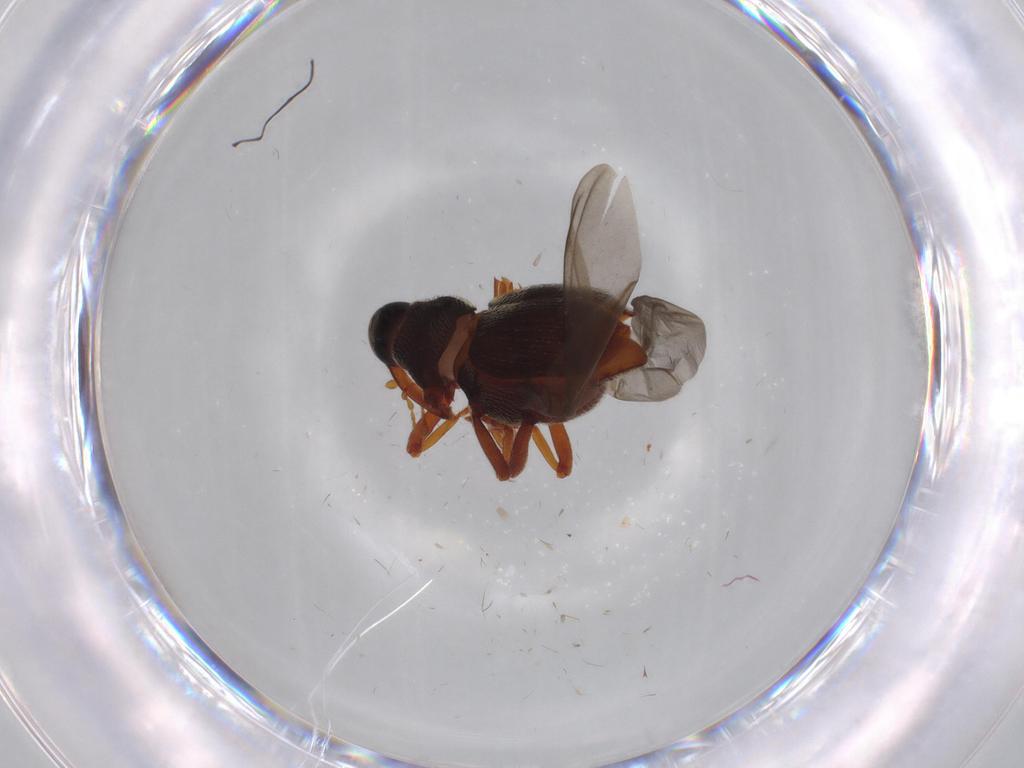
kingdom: Animalia
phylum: Arthropoda
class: Insecta
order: Coleoptera
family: Curculionidae
